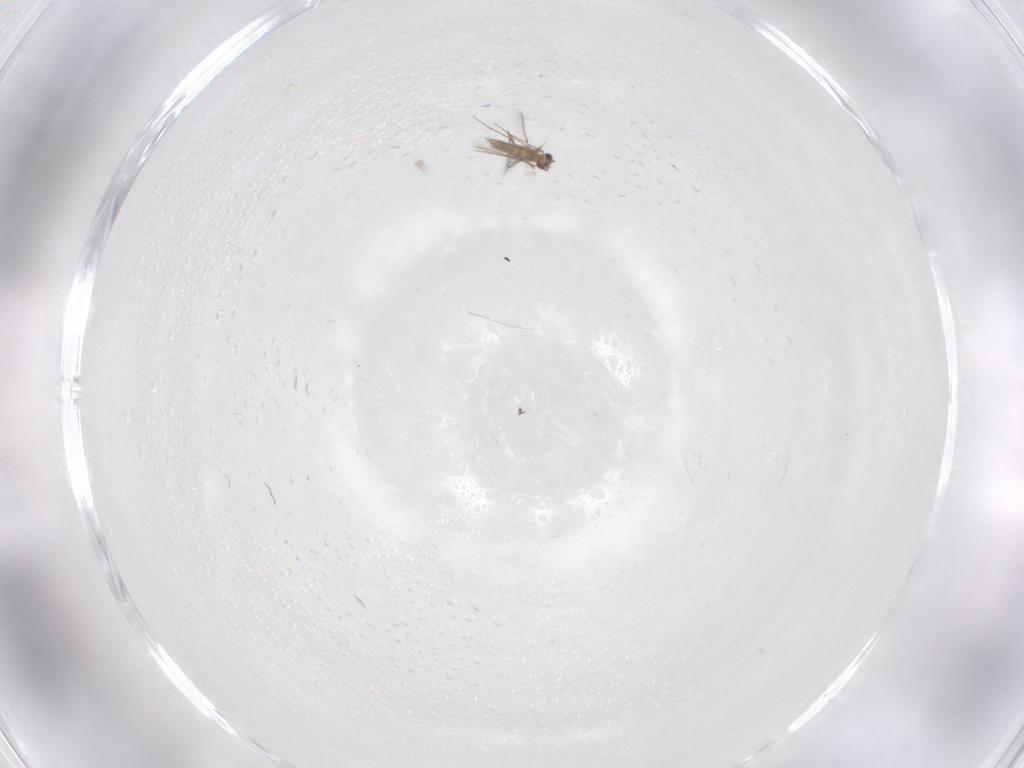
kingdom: Animalia
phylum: Arthropoda
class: Insecta
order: Hymenoptera
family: Mymaridae
